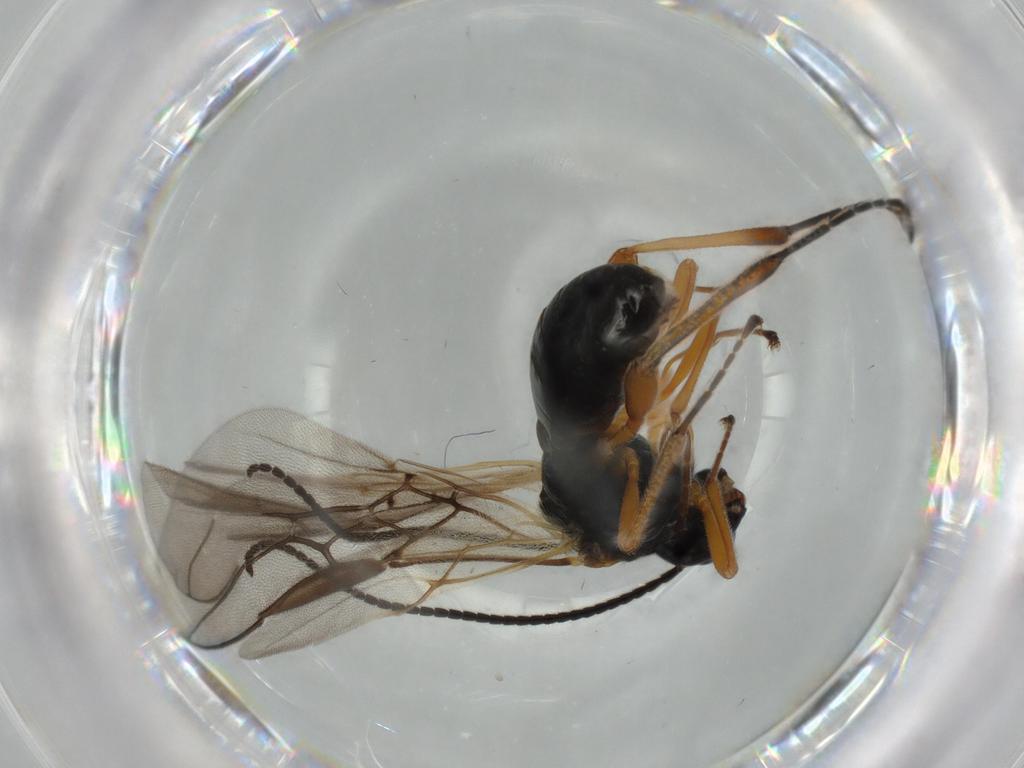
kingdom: Animalia
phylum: Arthropoda
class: Insecta
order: Hymenoptera
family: Braconidae
